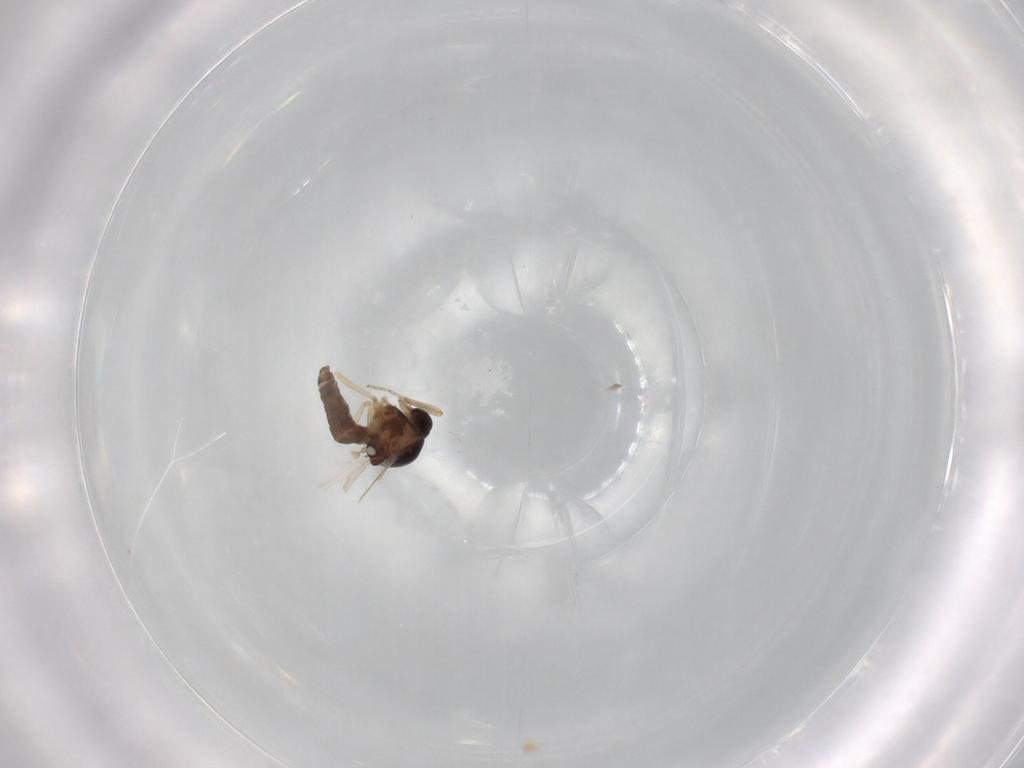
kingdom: Animalia
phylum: Arthropoda
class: Insecta
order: Diptera
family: Ceratopogonidae
